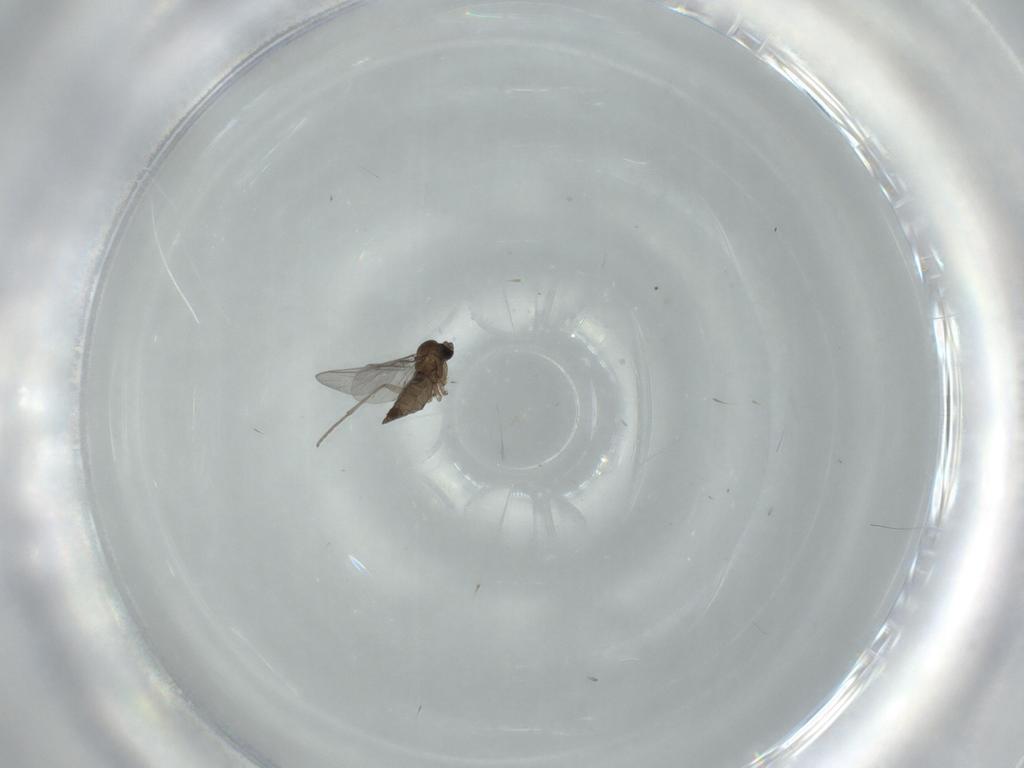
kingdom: Animalia
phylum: Arthropoda
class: Insecta
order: Diptera
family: Sciaridae
